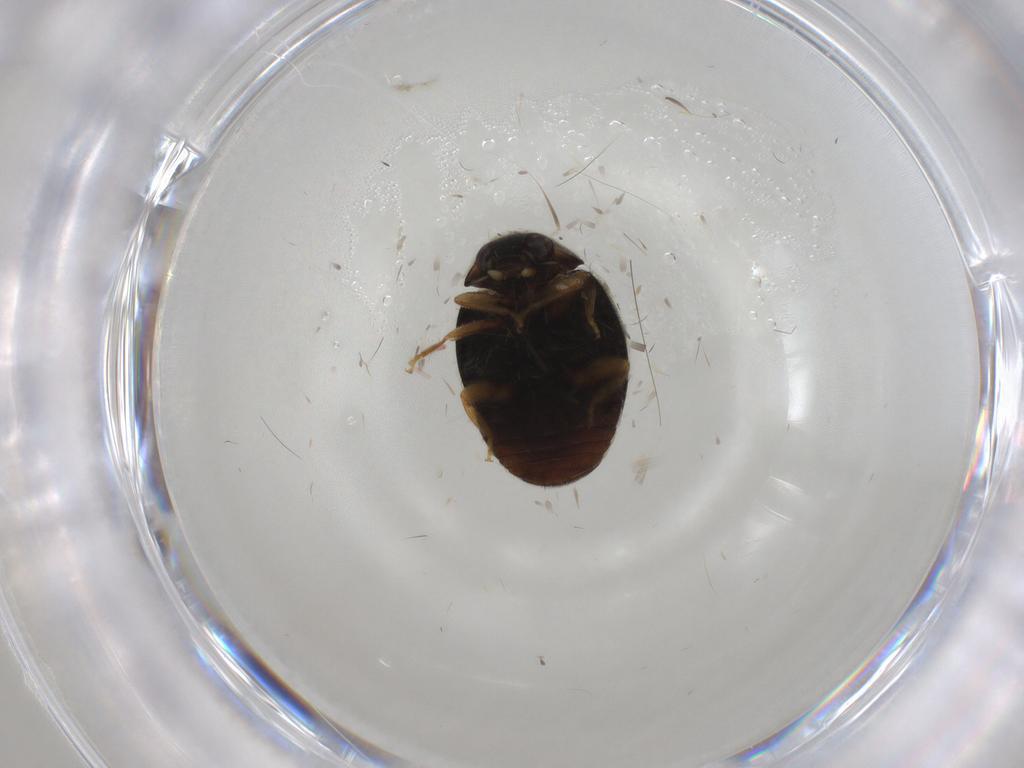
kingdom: Animalia
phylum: Arthropoda
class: Insecta
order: Coleoptera
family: Coccinellidae
